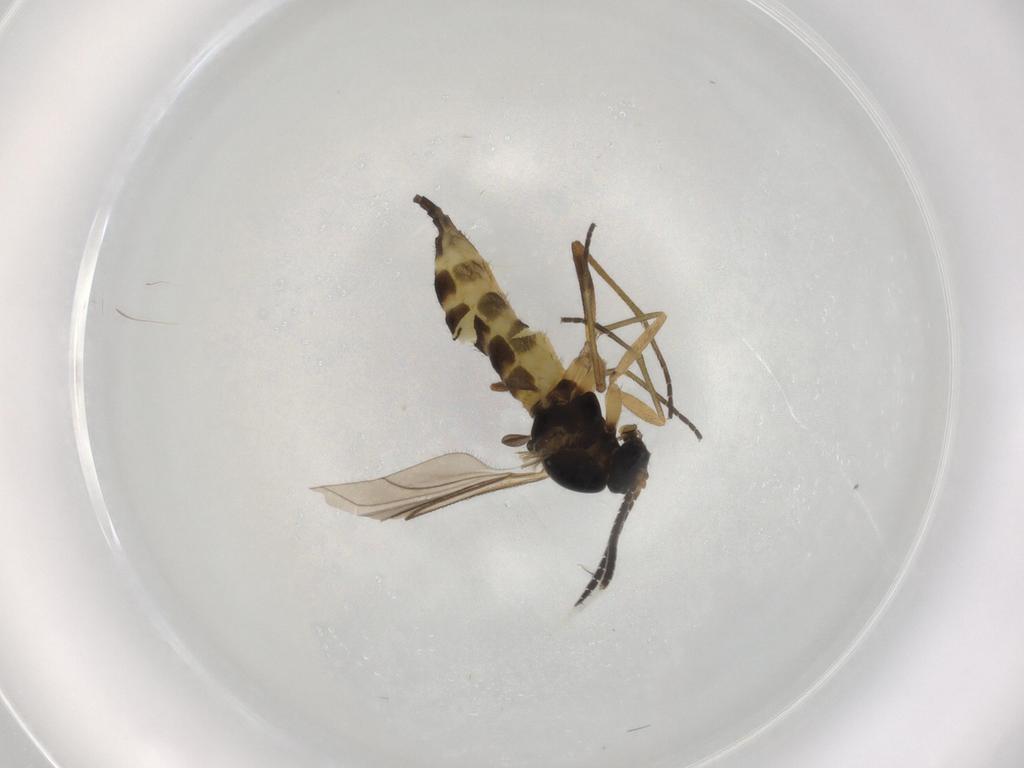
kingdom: Animalia
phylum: Arthropoda
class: Insecta
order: Diptera
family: Sciaridae
